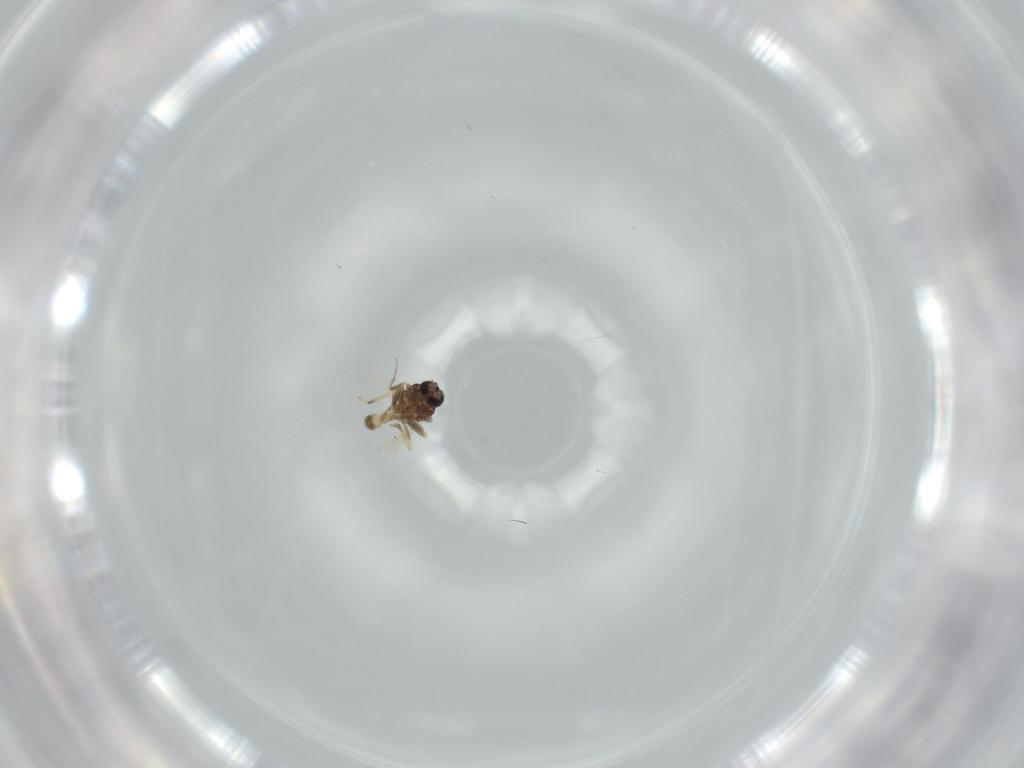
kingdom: Animalia
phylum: Arthropoda
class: Insecta
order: Diptera
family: Ceratopogonidae
